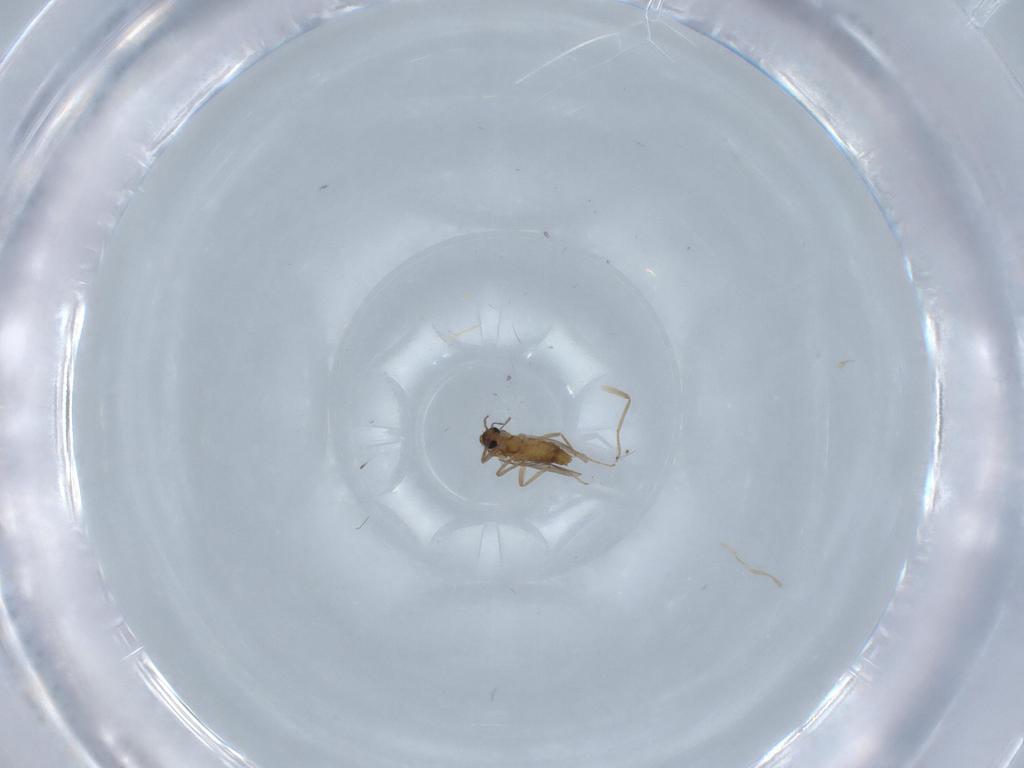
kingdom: Animalia
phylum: Arthropoda
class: Insecta
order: Diptera
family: Chironomidae
